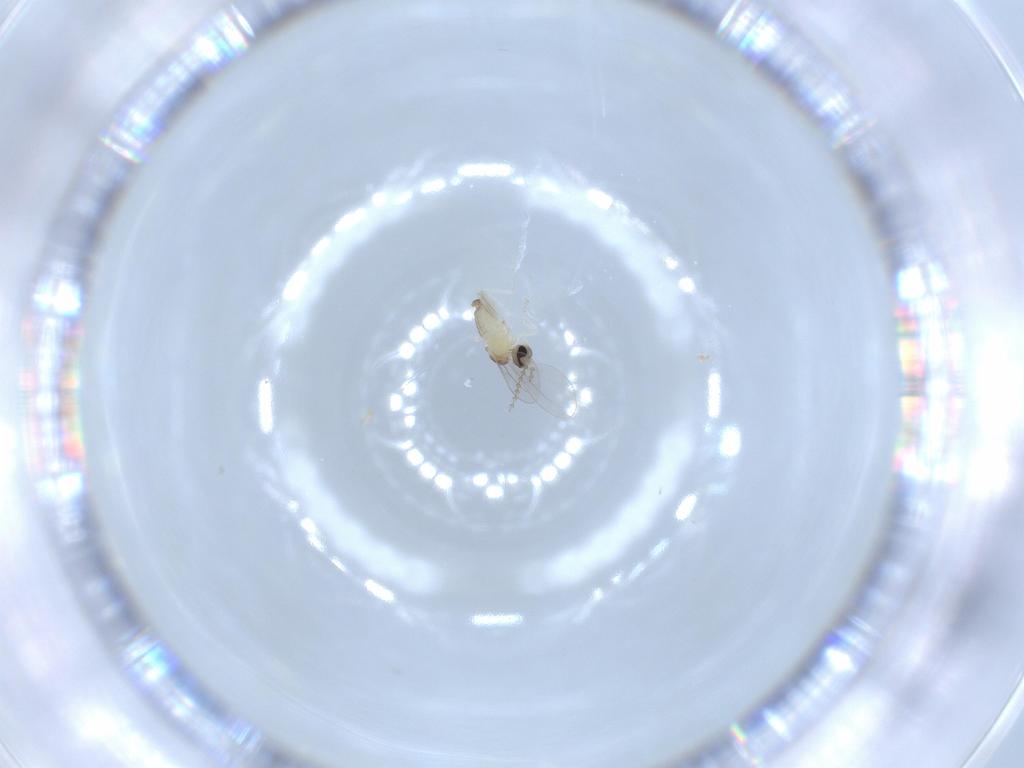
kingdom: Animalia
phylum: Arthropoda
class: Insecta
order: Diptera
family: Cecidomyiidae
